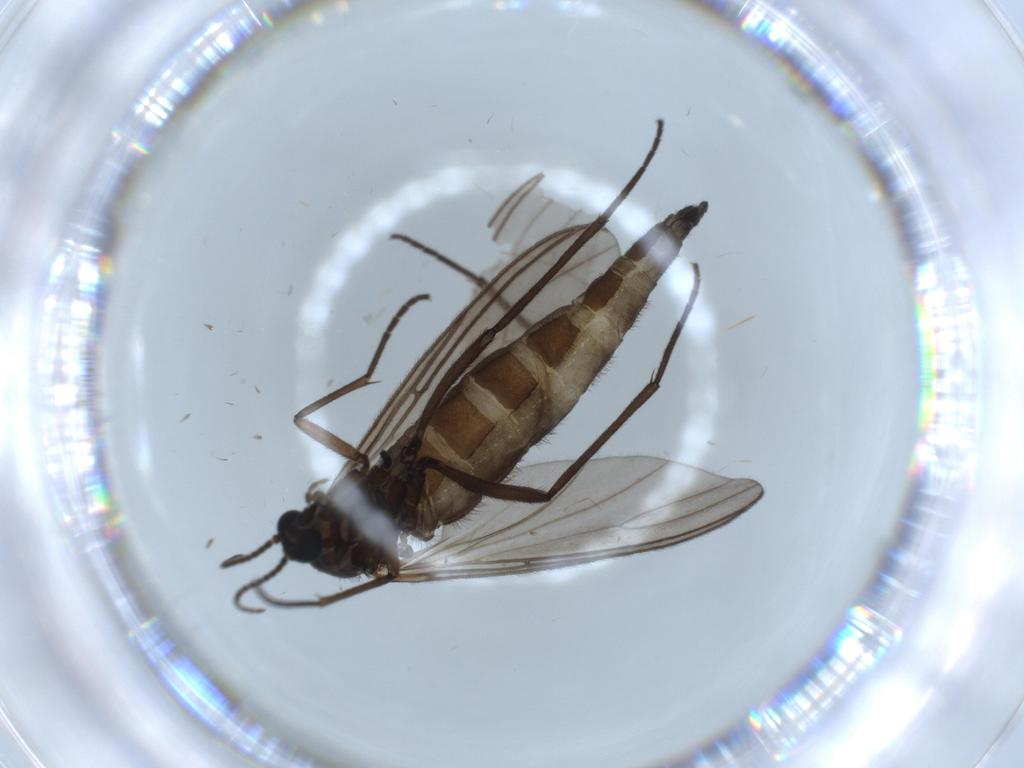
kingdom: Animalia
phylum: Arthropoda
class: Insecta
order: Diptera
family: Sciaridae
